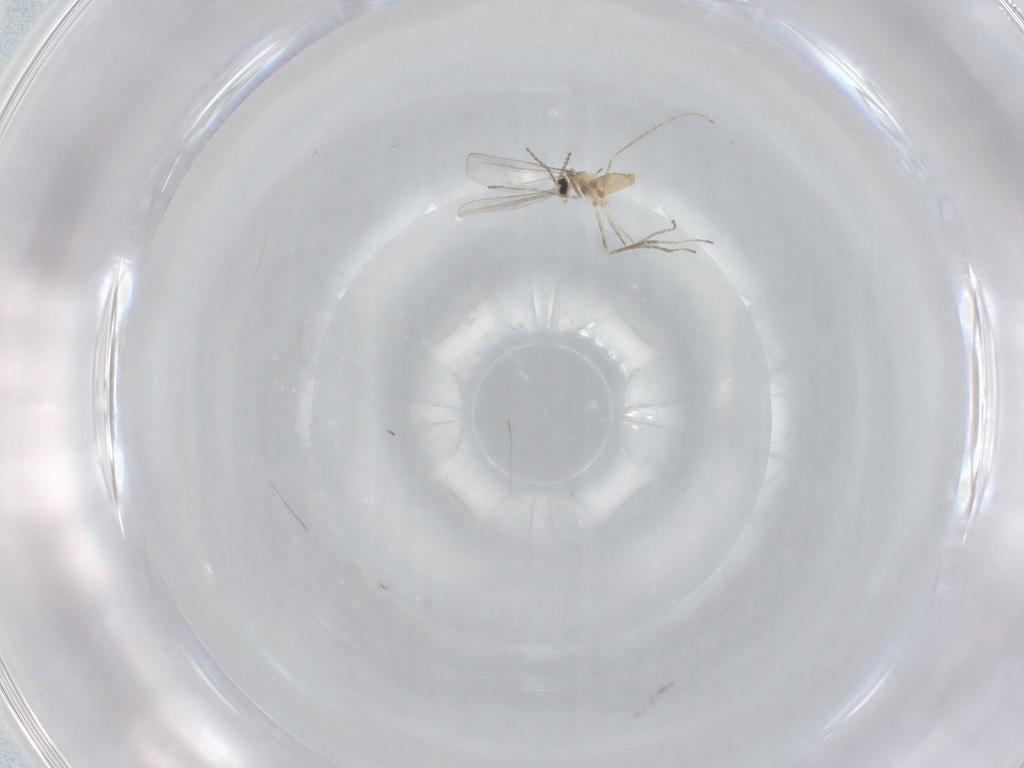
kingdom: Animalia
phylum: Arthropoda
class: Insecta
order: Diptera
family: Cecidomyiidae
